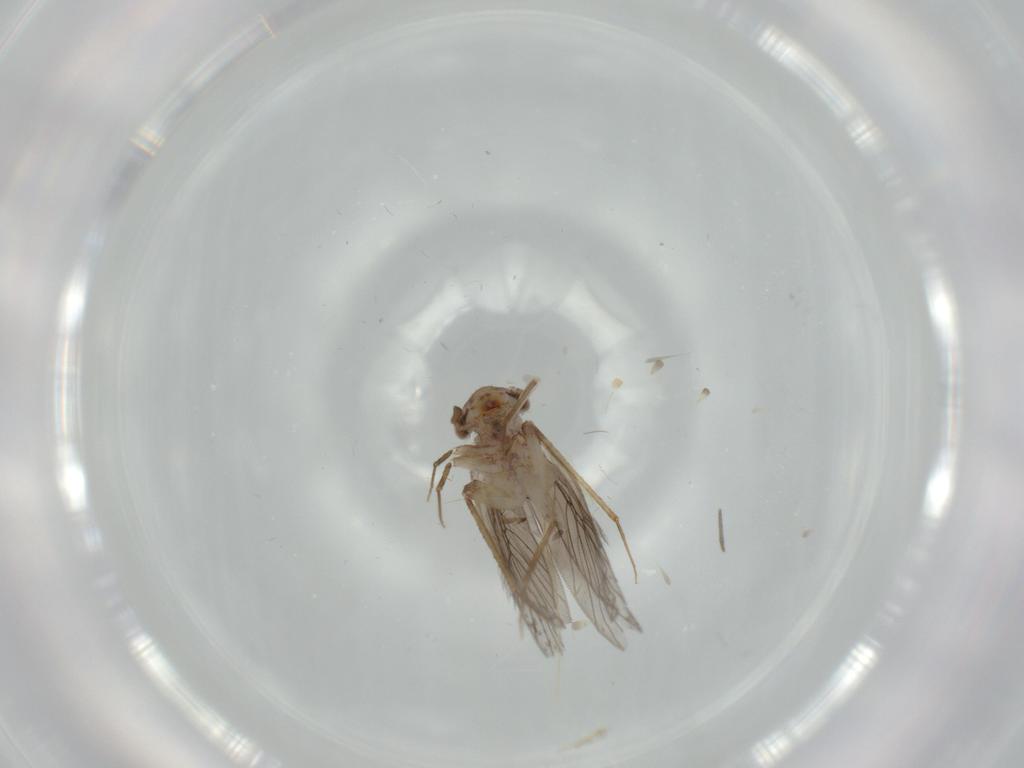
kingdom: Animalia
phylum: Arthropoda
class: Insecta
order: Psocodea
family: Lepidopsocidae
